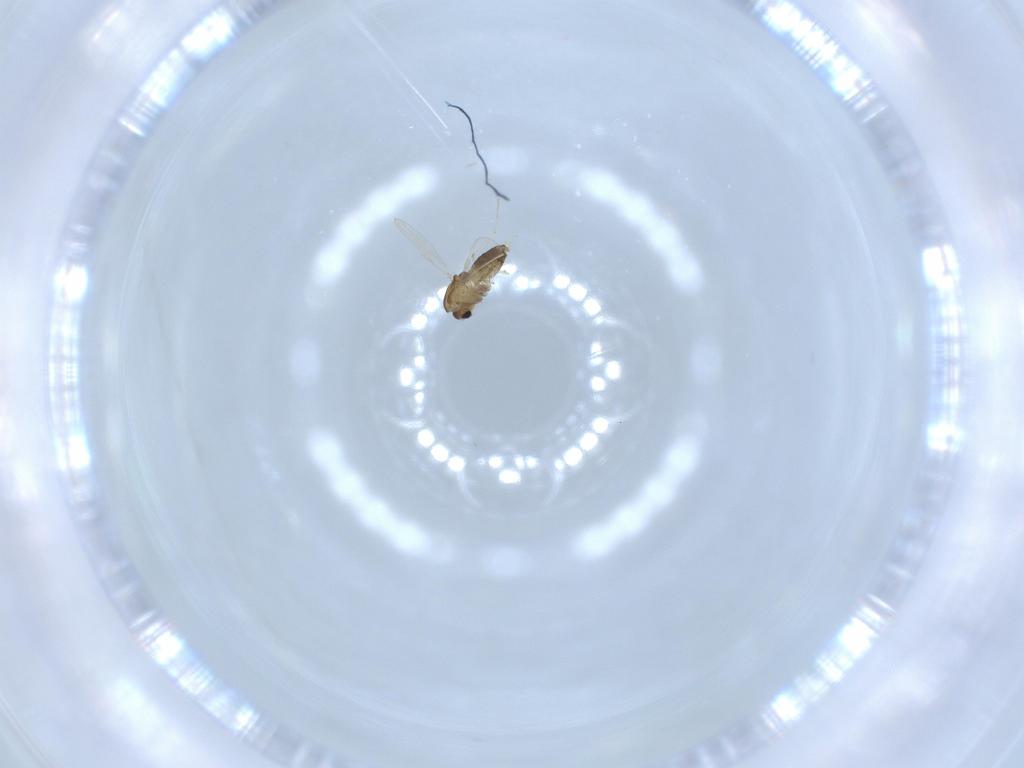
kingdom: Animalia
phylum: Arthropoda
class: Insecta
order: Diptera
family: Chironomidae
